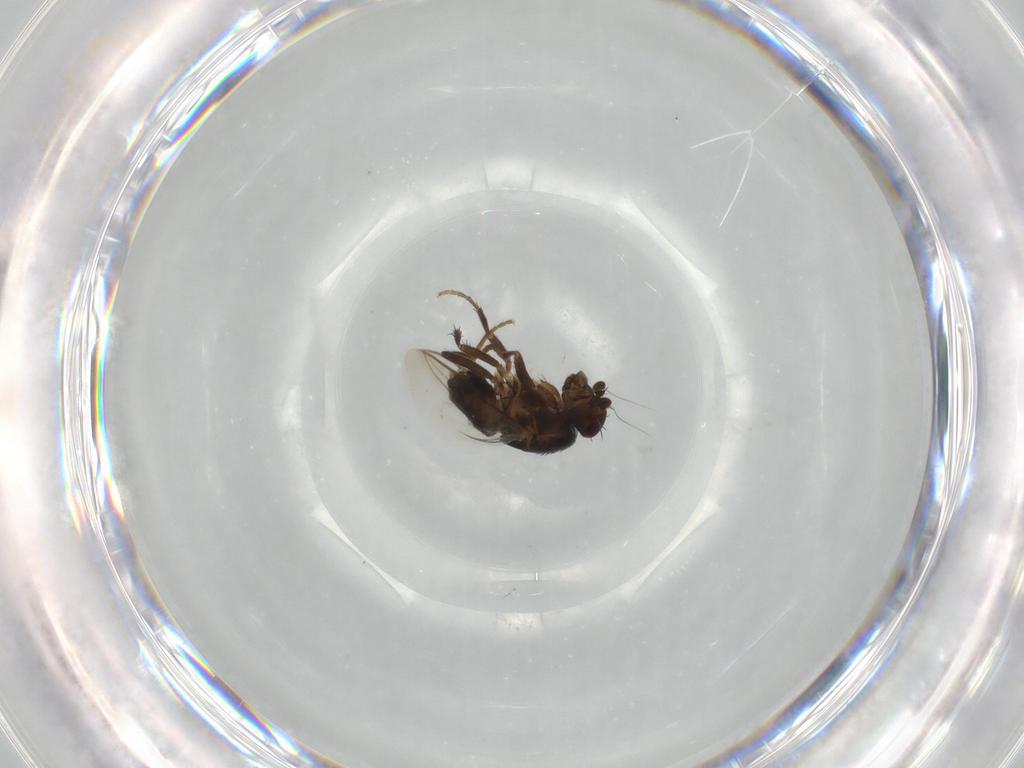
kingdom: Animalia
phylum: Arthropoda
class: Insecta
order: Diptera
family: Sphaeroceridae
